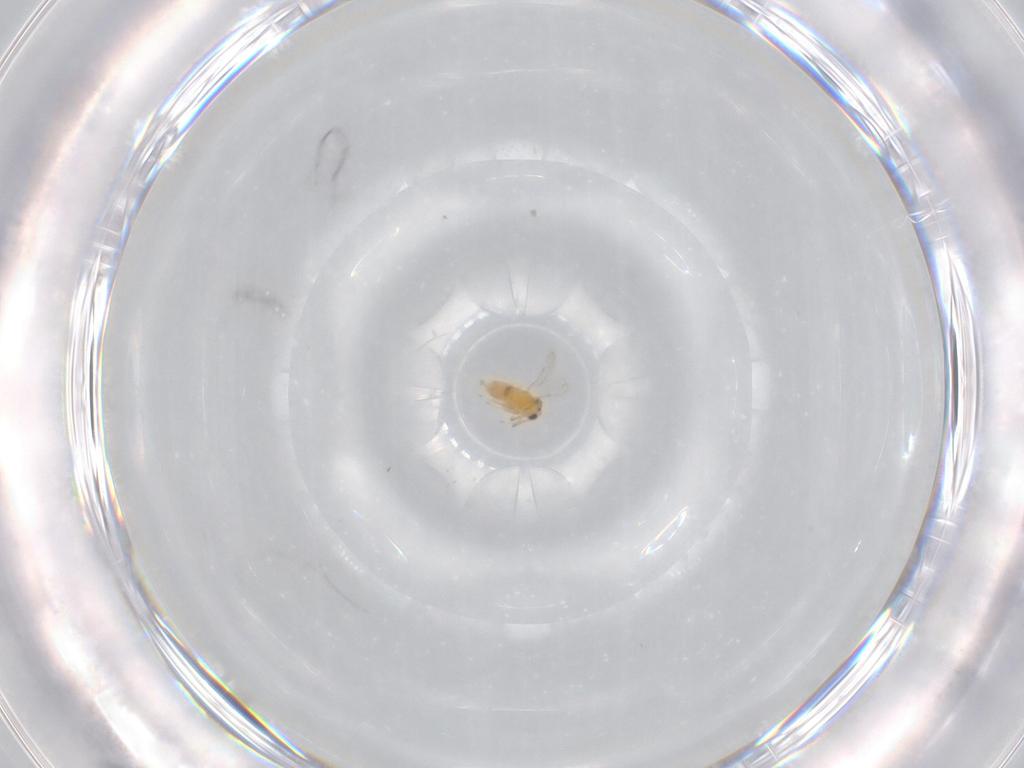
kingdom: Animalia
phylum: Arthropoda
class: Insecta
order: Hymenoptera
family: Aphelinidae
